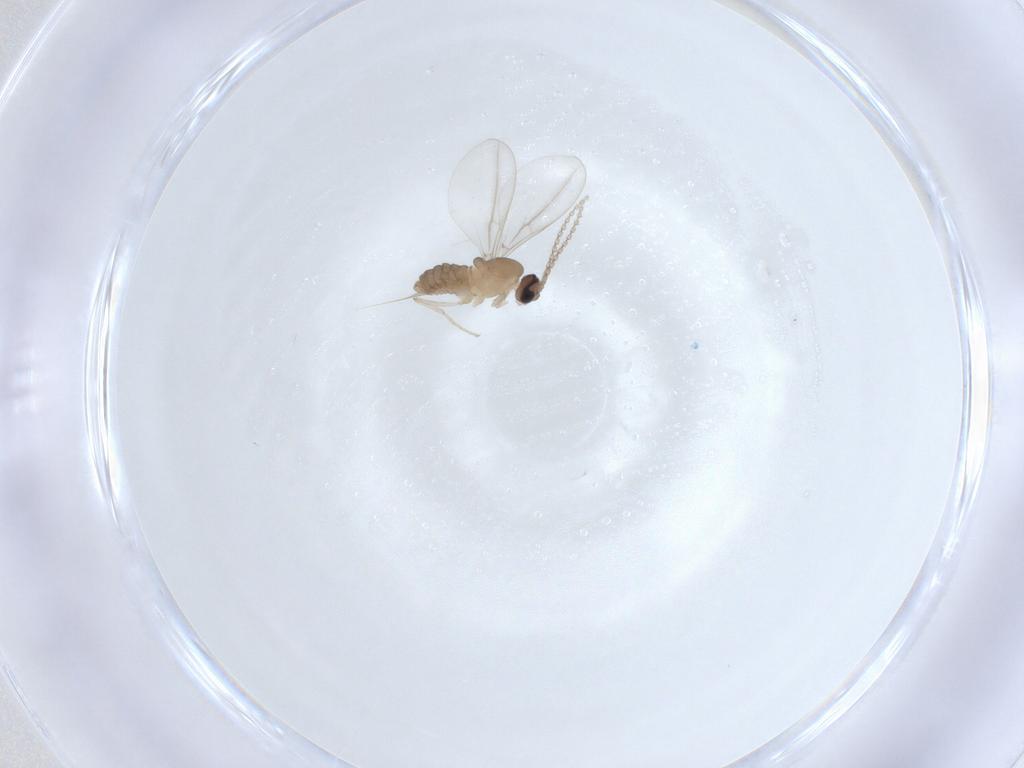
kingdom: Animalia
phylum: Arthropoda
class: Insecta
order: Diptera
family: Cecidomyiidae
